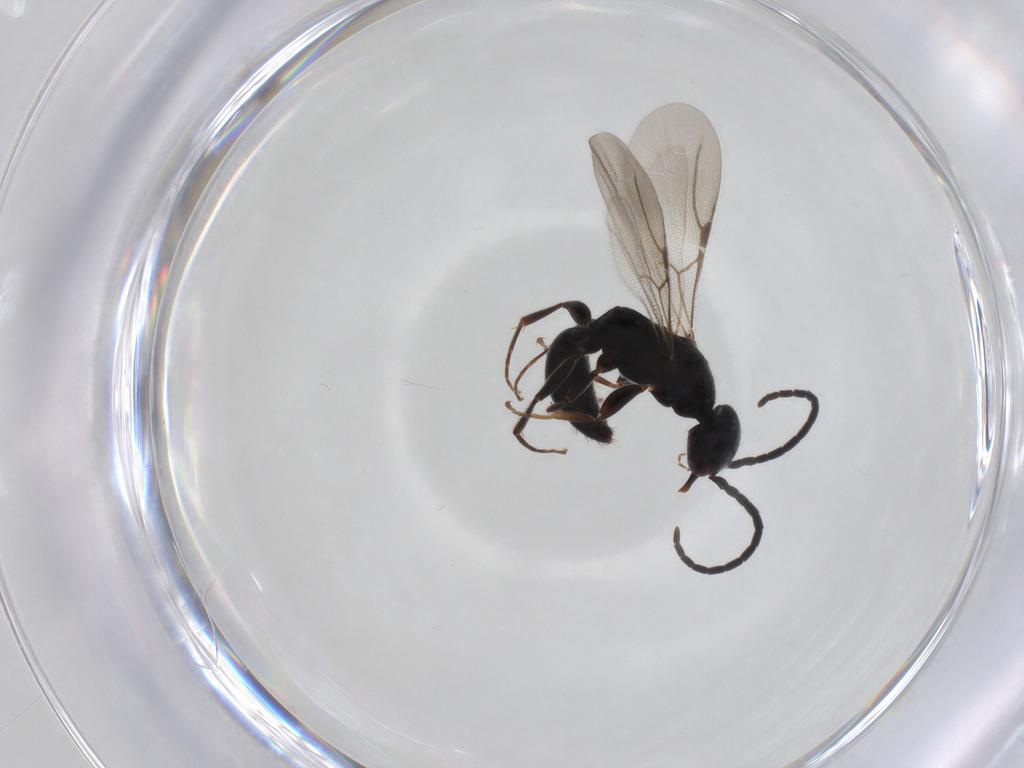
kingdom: Animalia
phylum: Arthropoda
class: Insecta
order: Hymenoptera
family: Bethylidae
